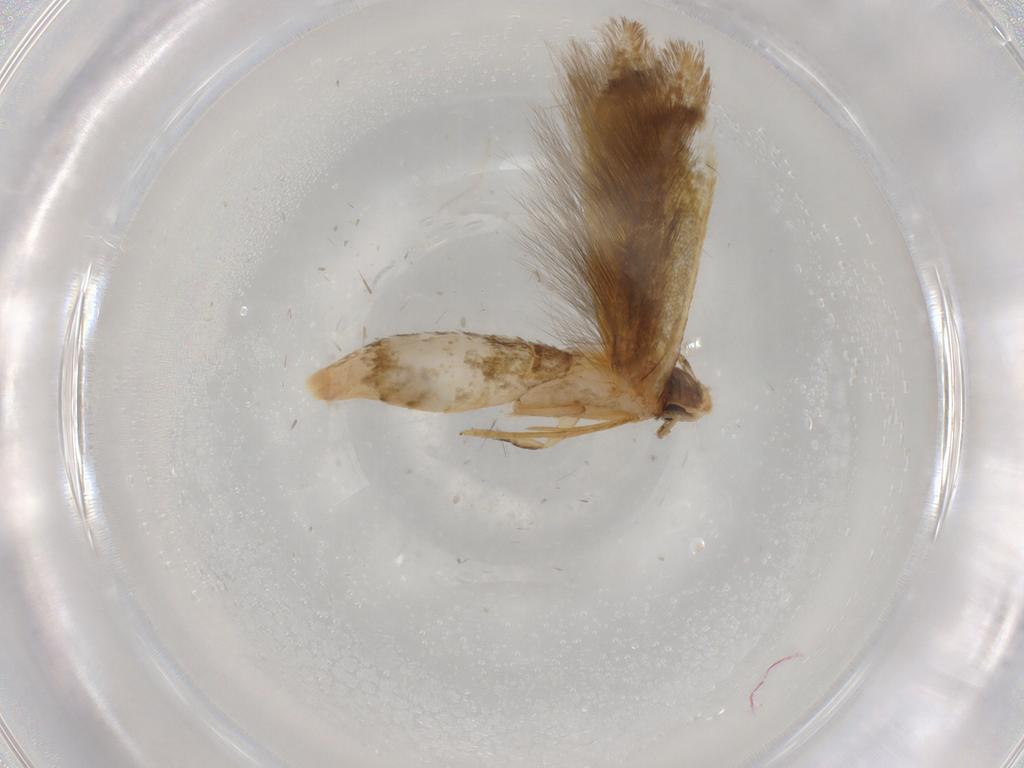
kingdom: Animalia
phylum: Arthropoda
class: Insecta
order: Lepidoptera
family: Tineidae
